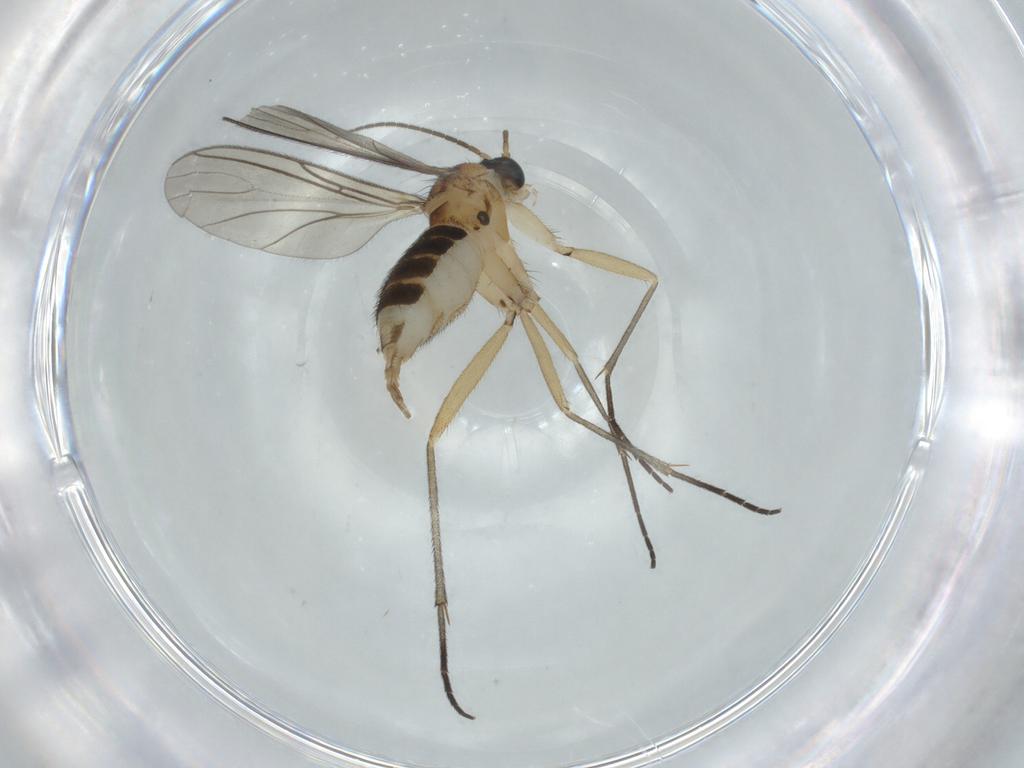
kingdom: Animalia
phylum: Arthropoda
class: Insecta
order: Diptera
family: Sciaridae
